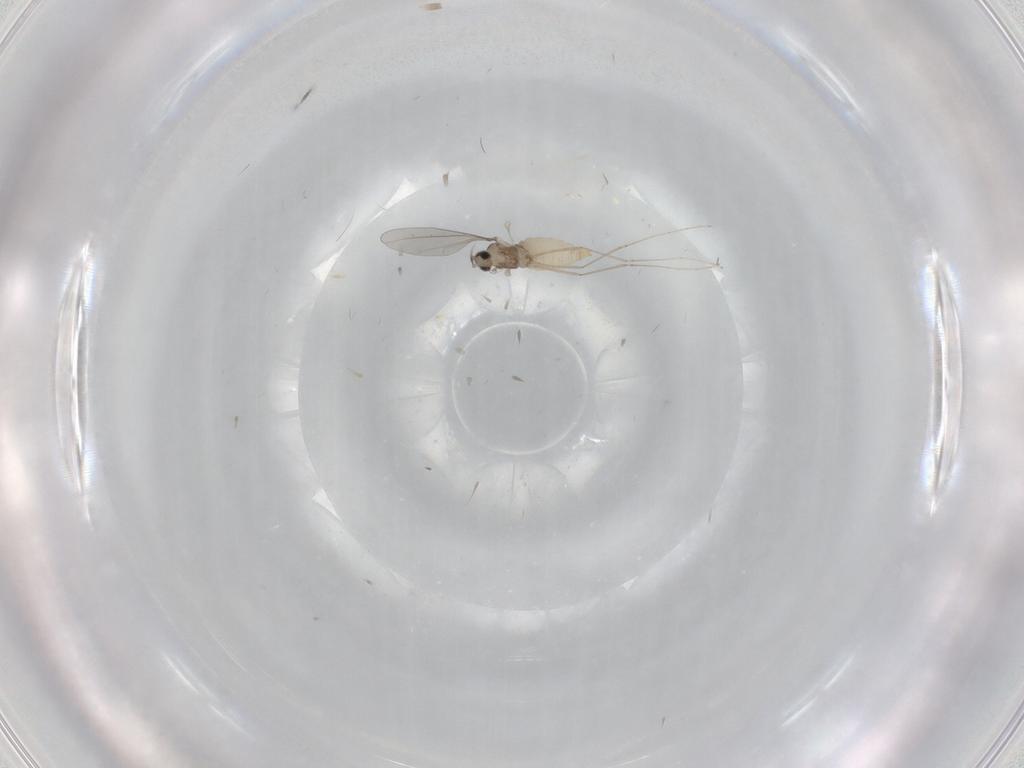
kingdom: Animalia
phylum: Arthropoda
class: Insecta
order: Diptera
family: Cecidomyiidae
